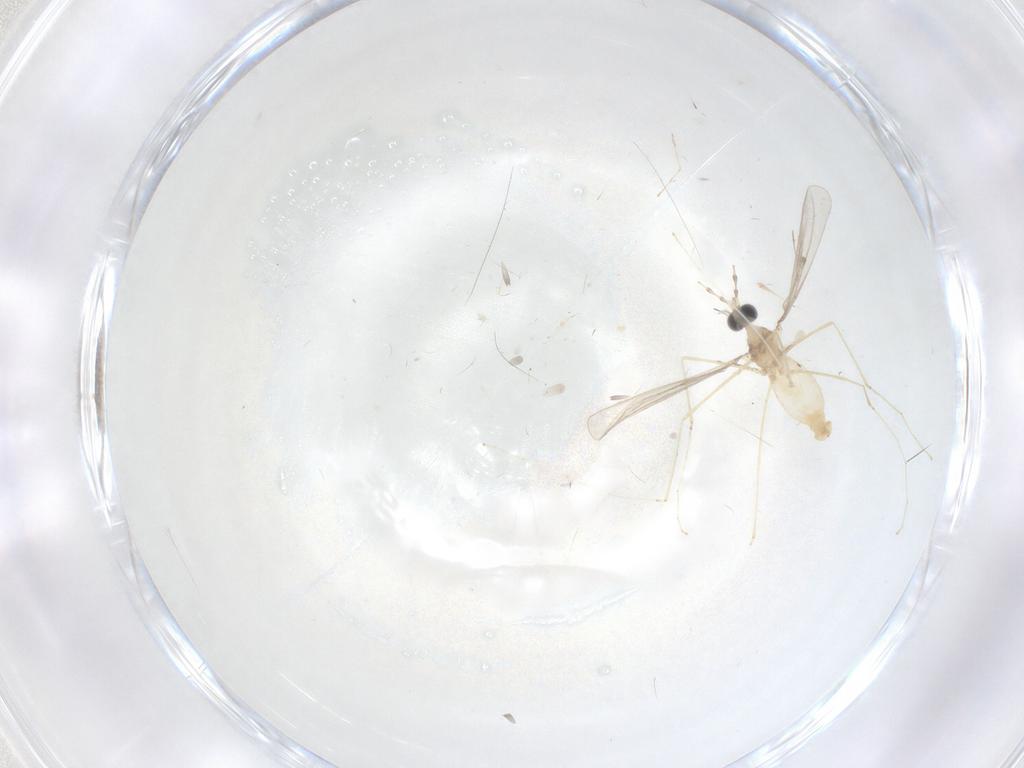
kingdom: Animalia
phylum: Arthropoda
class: Insecta
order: Diptera
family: Cecidomyiidae
